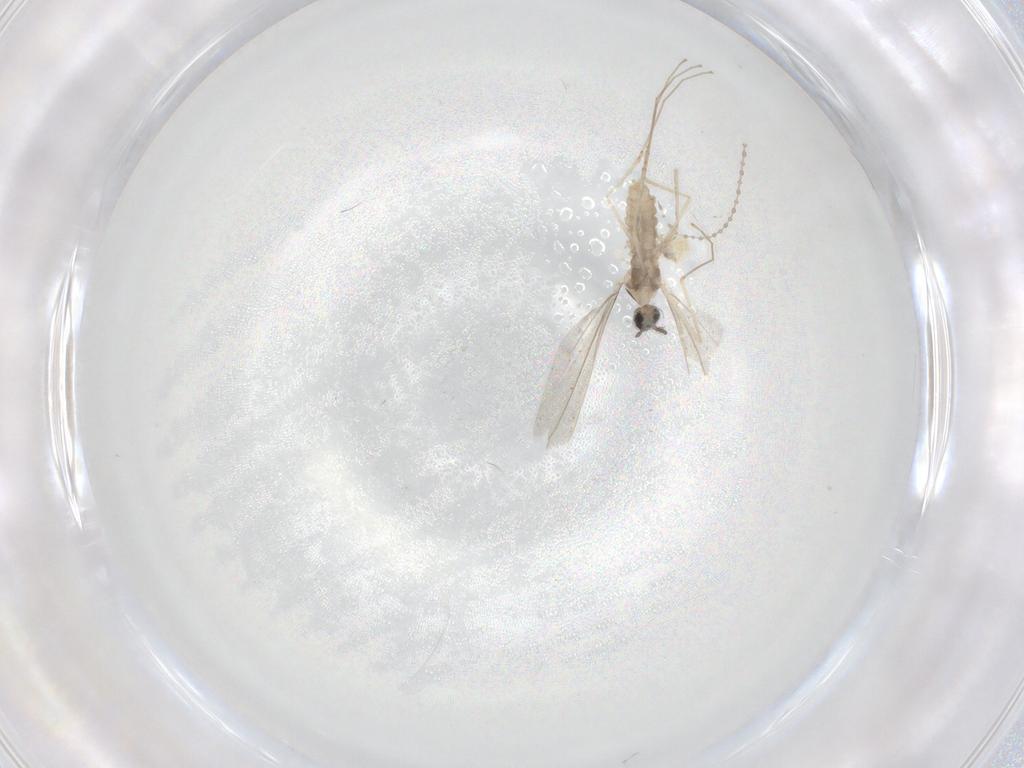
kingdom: Animalia
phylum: Arthropoda
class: Insecta
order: Diptera
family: Cecidomyiidae
